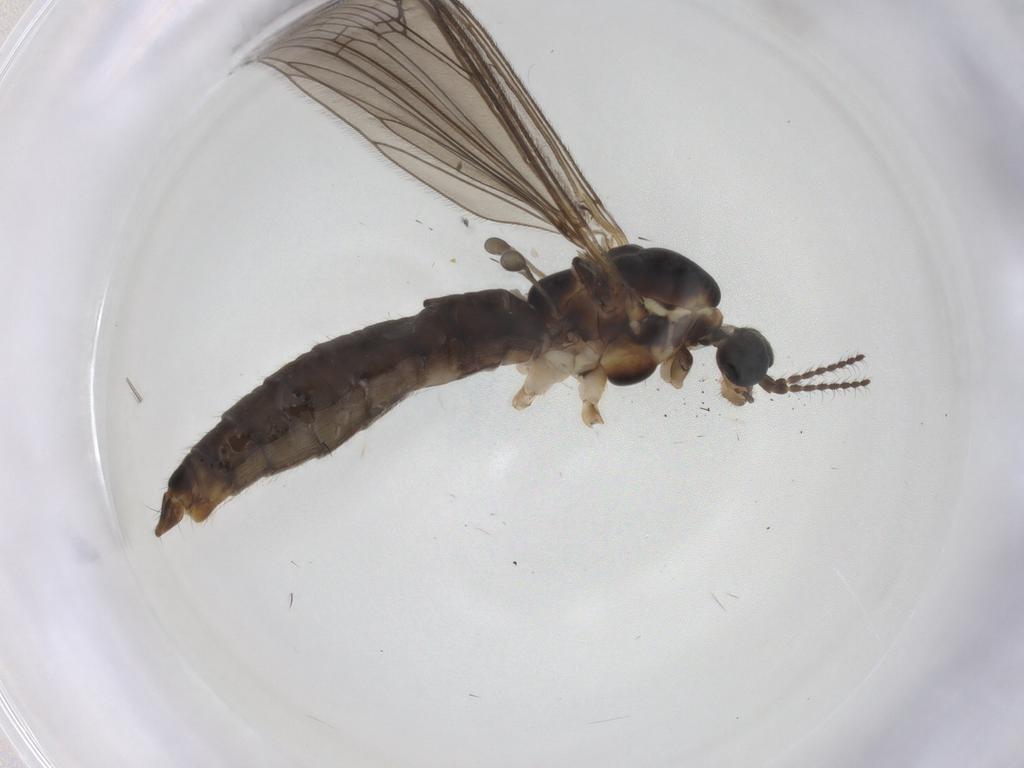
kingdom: Animalia
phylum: Arthropoda
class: Insecta
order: Diptera
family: Limoniidae
